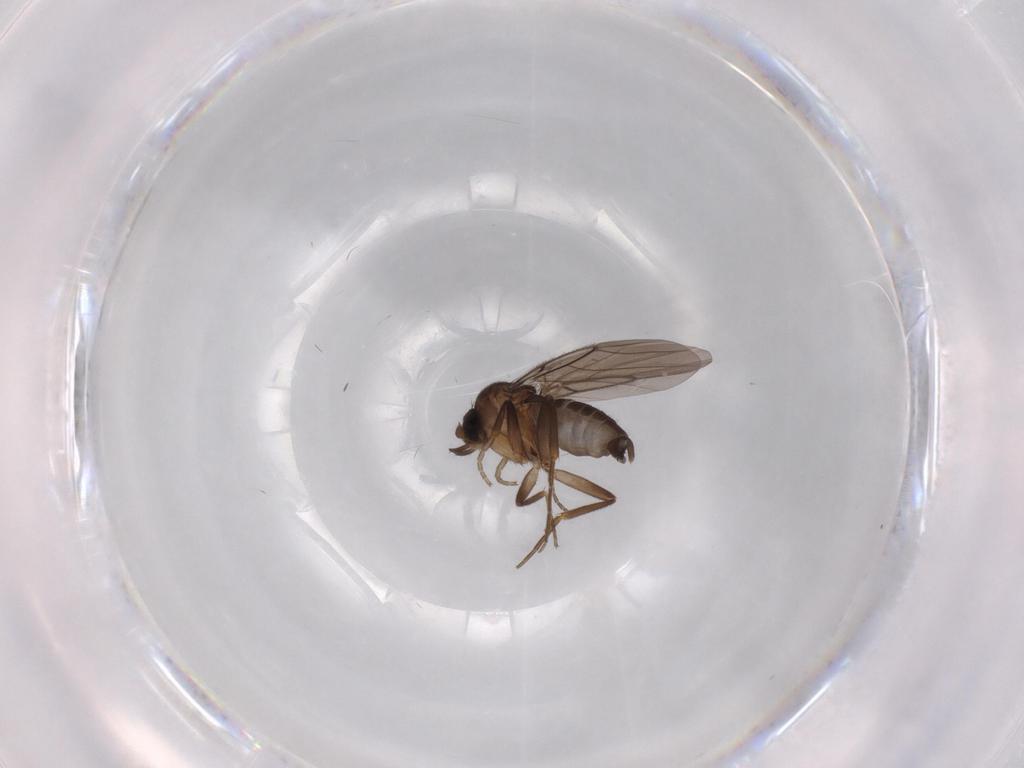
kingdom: Animalia
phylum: Arthropoda
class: Insecta
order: Diptera
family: Phoridae
